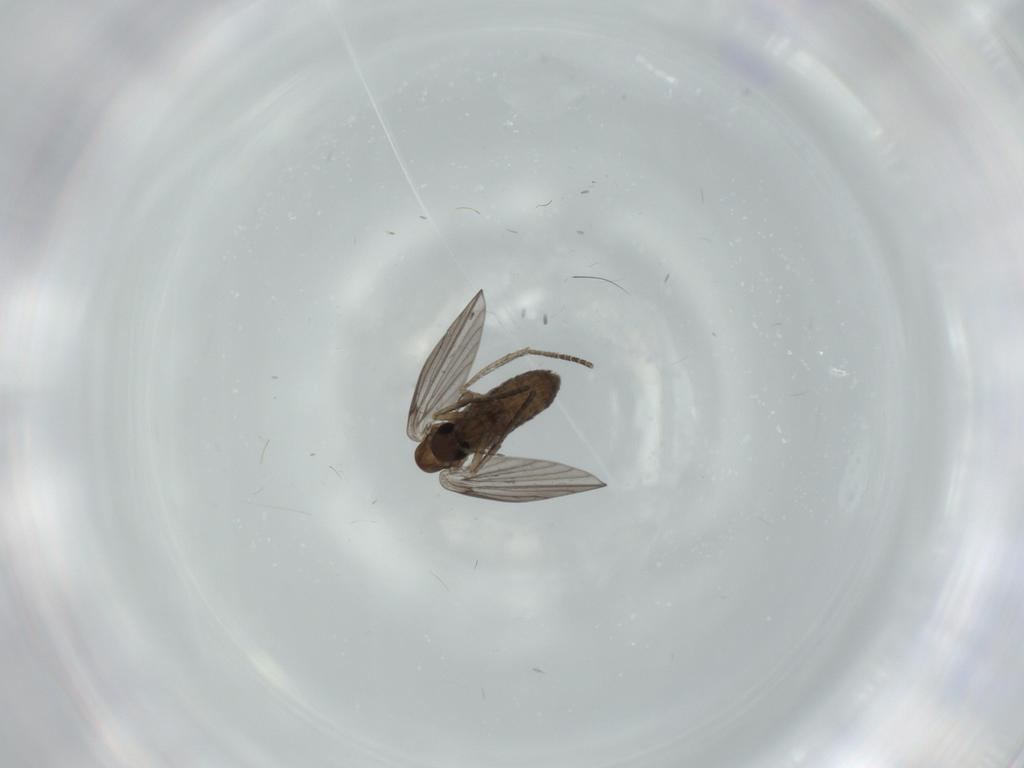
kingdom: Animalia
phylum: Arthropoda
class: Insecta
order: Diptera
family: Psychodidae
